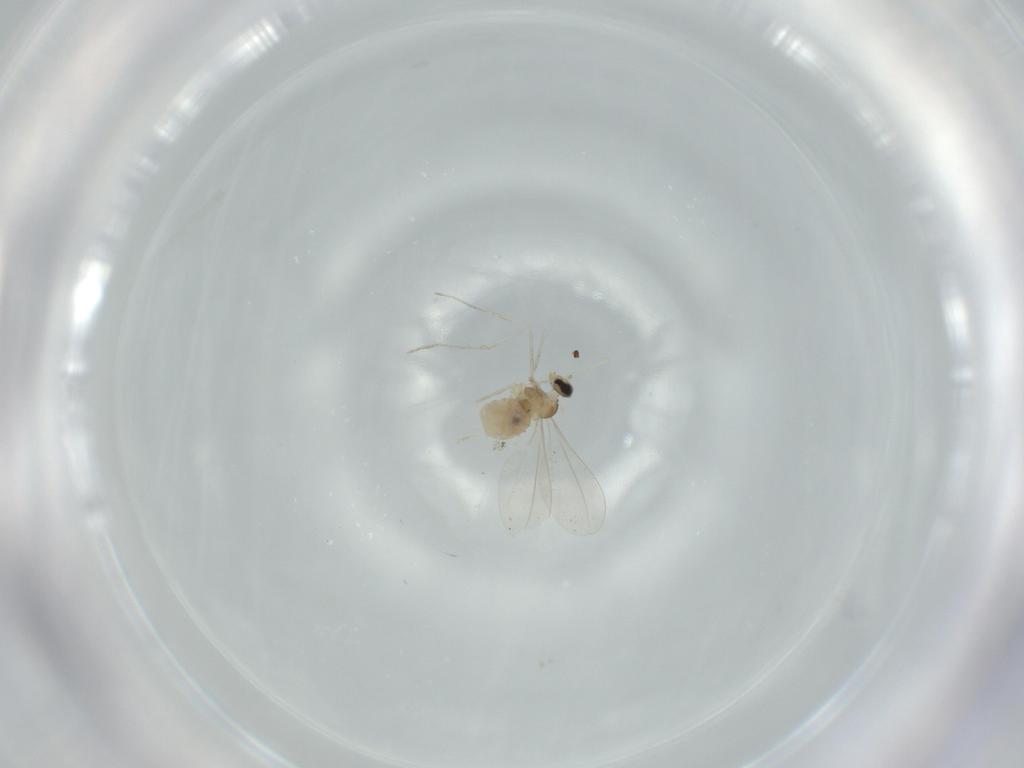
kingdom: Animalia
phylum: Arthropoda
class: Insecta
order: Diptera
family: Cecidomyiidae
